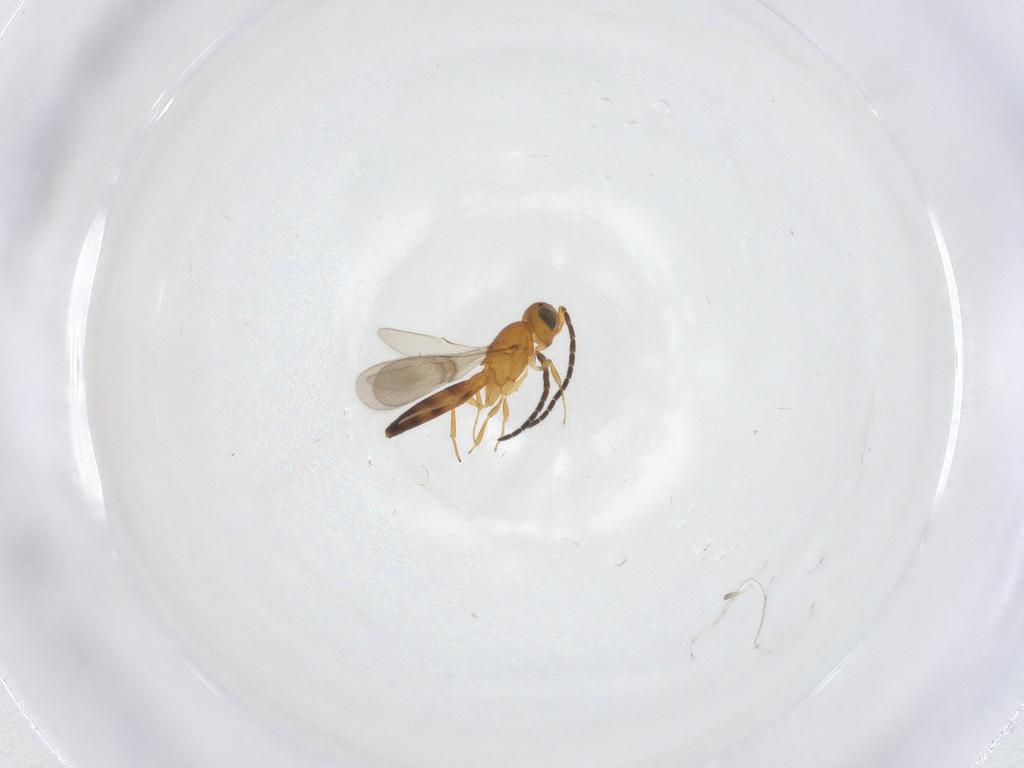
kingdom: Animalia
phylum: Arthropoda
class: Insecta
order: Hymenoptera
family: Scelionidae
